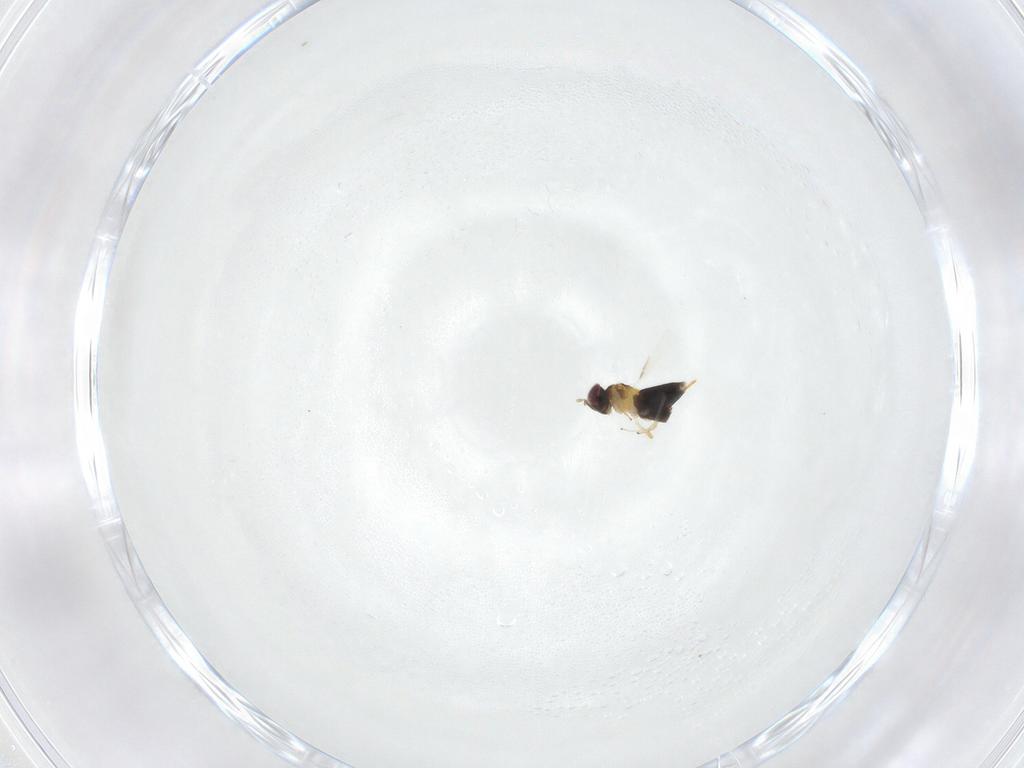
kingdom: Animalia
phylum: Arthropoda
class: Insecta
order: Hymenoptera
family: Aphelinidae
